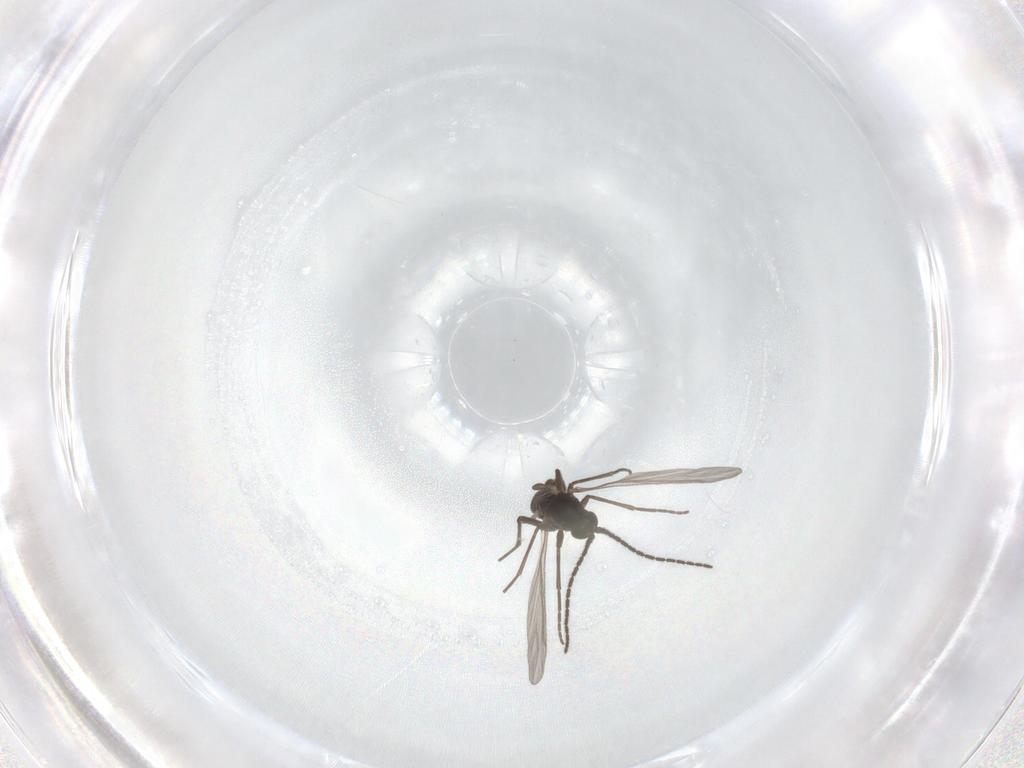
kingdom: Animalia
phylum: Arthropoda
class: Insecta
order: Diptera
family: Sciaridae
